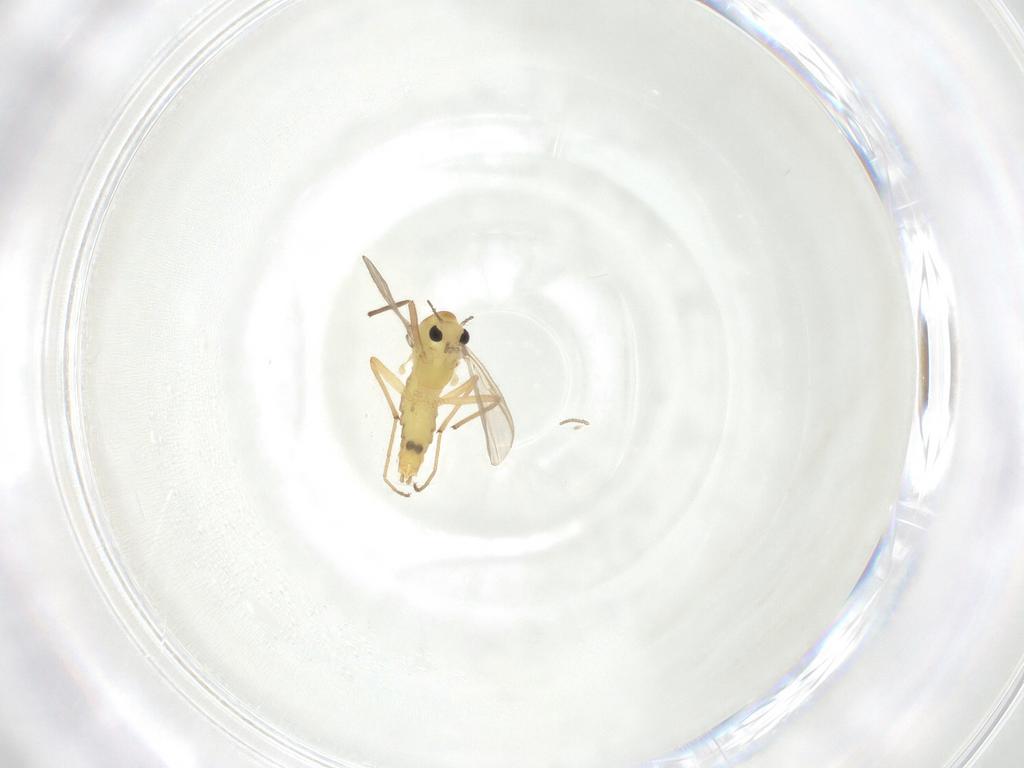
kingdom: Animalia
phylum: Arthropoda
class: Insecta
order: Diptera
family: Chironomidae
